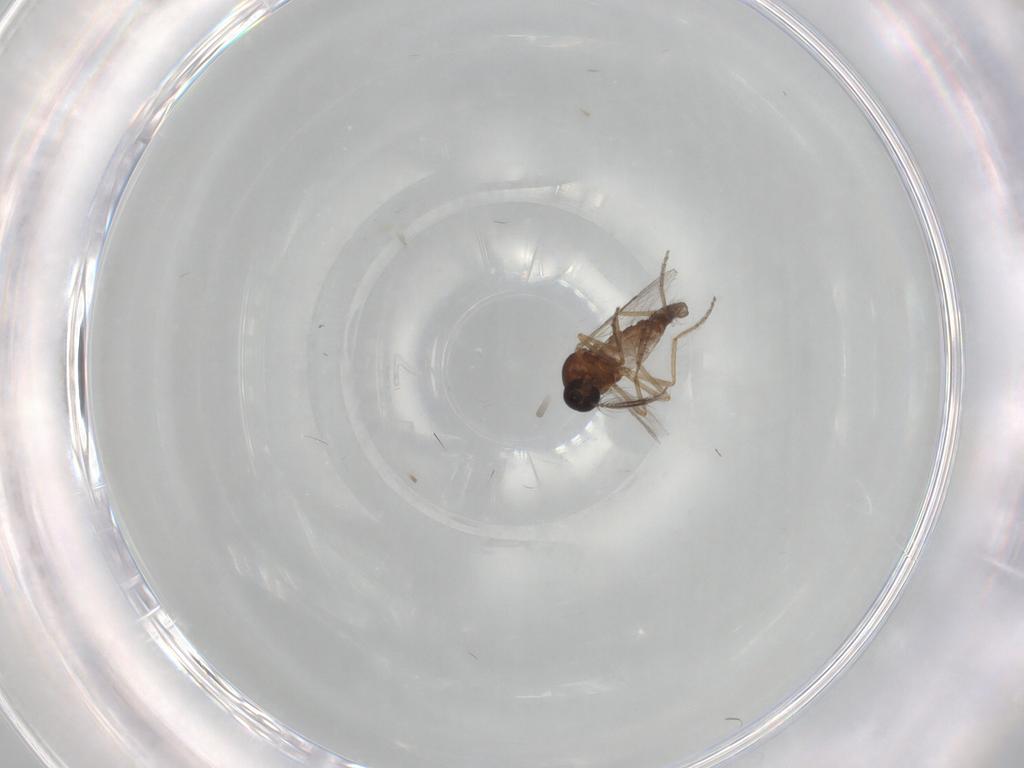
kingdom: Animalia
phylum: Arthropoda
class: Insecta
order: Diptera
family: Ceratopogonidae
